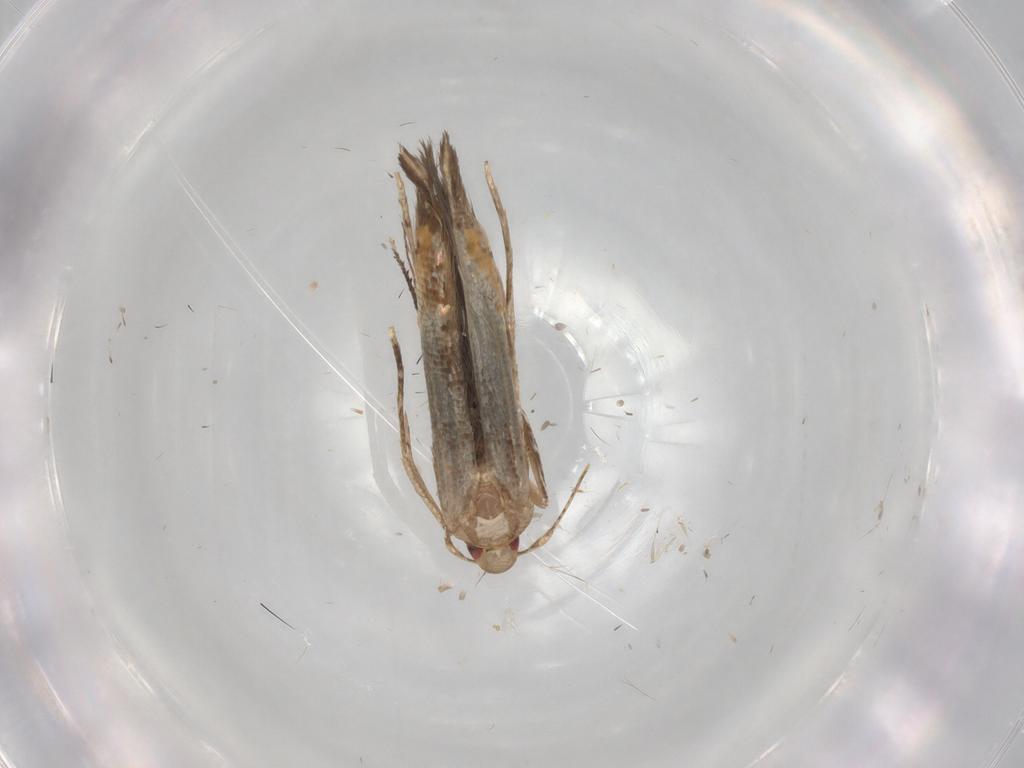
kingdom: Animalia
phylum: Arthropoda
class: Insecta
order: Lepidoptera
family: Gelechiidae
